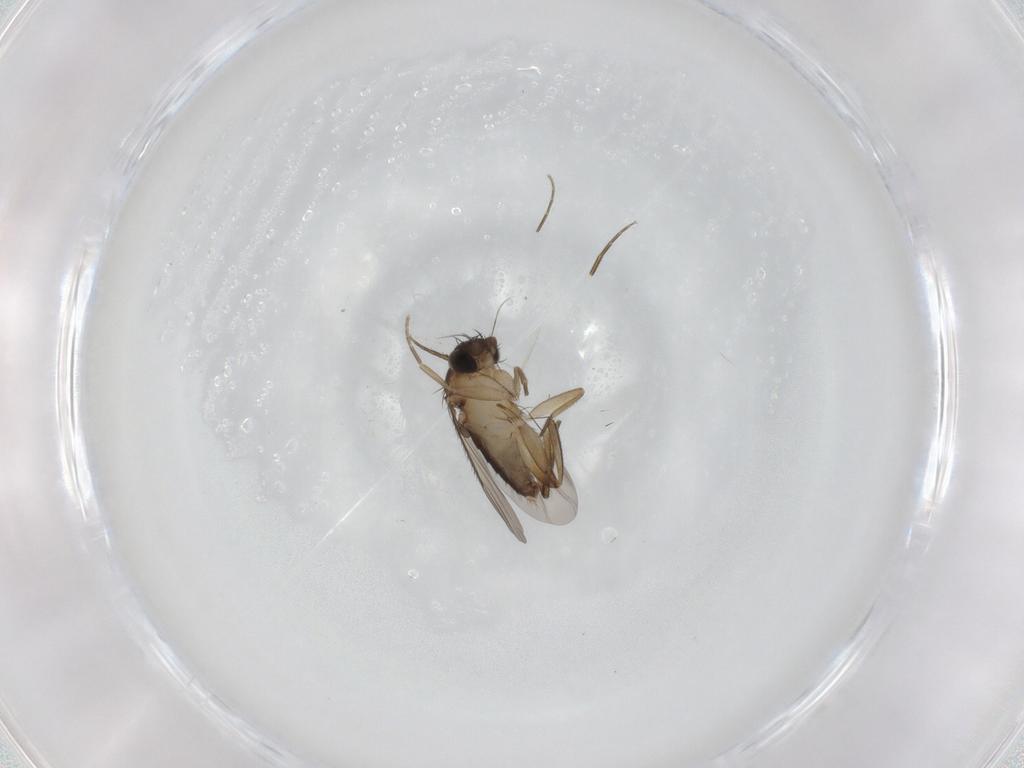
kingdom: Animalia
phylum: Arthropoda
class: Insecta
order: Diptera
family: Phoridae
